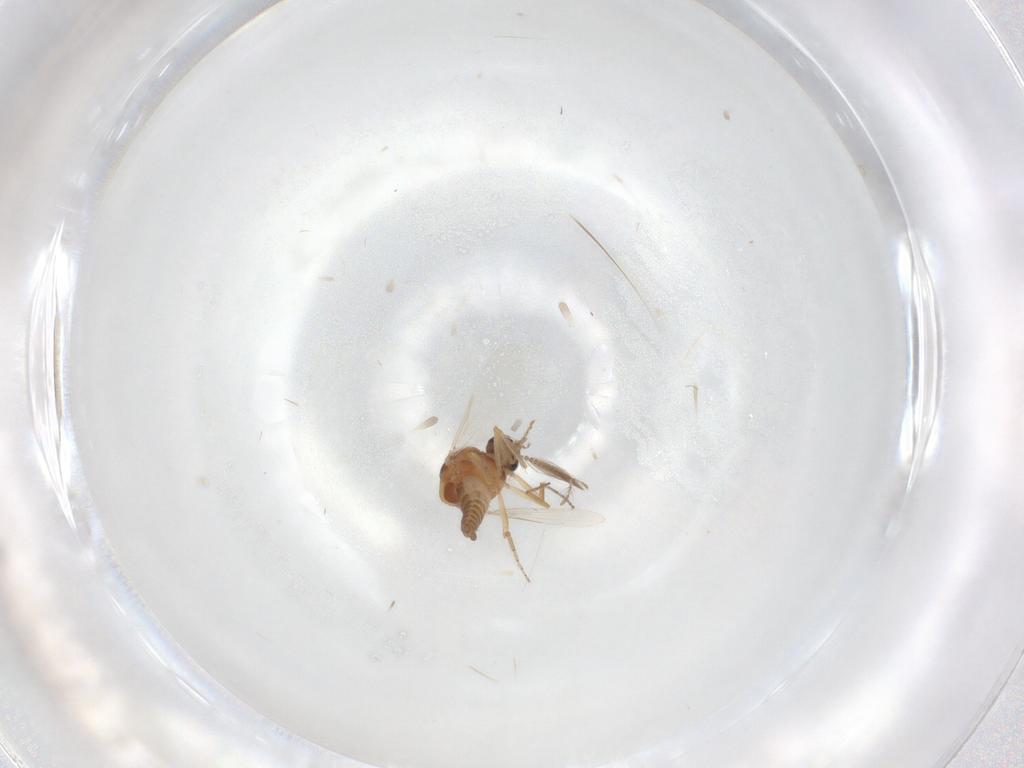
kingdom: Animalia
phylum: Arthropoda
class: Insecta
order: Diptera
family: Ceratopogonidae
